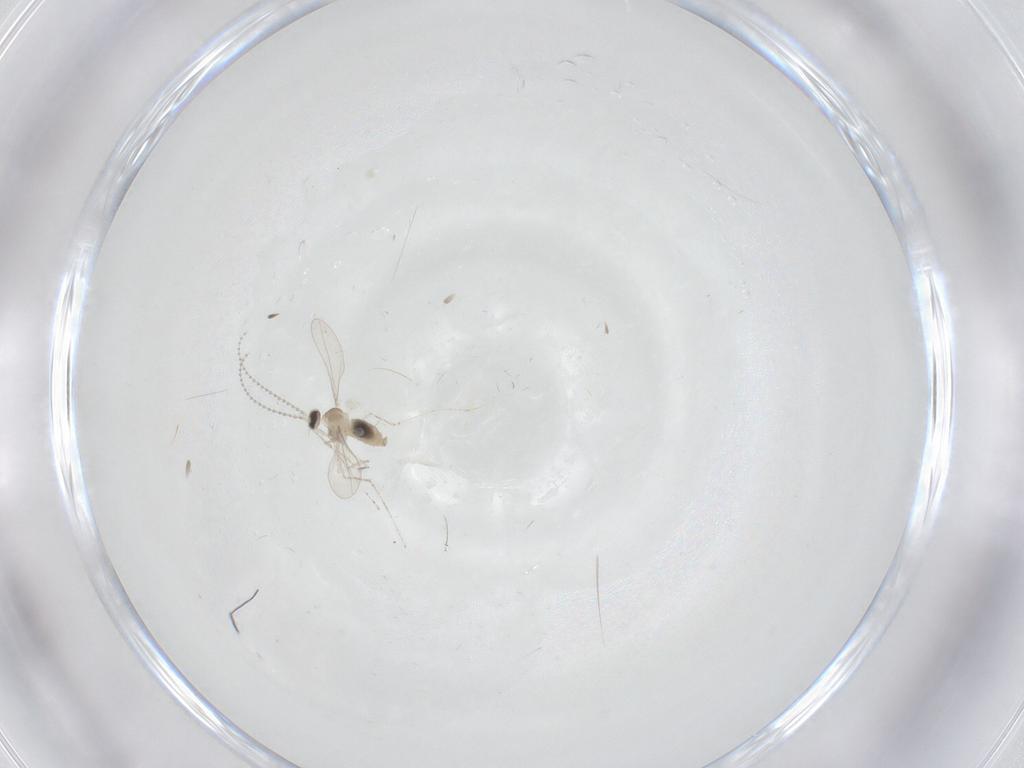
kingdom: Animalia
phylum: Arthropoda
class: Insecta
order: Diptera
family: Cecidomyiidae
